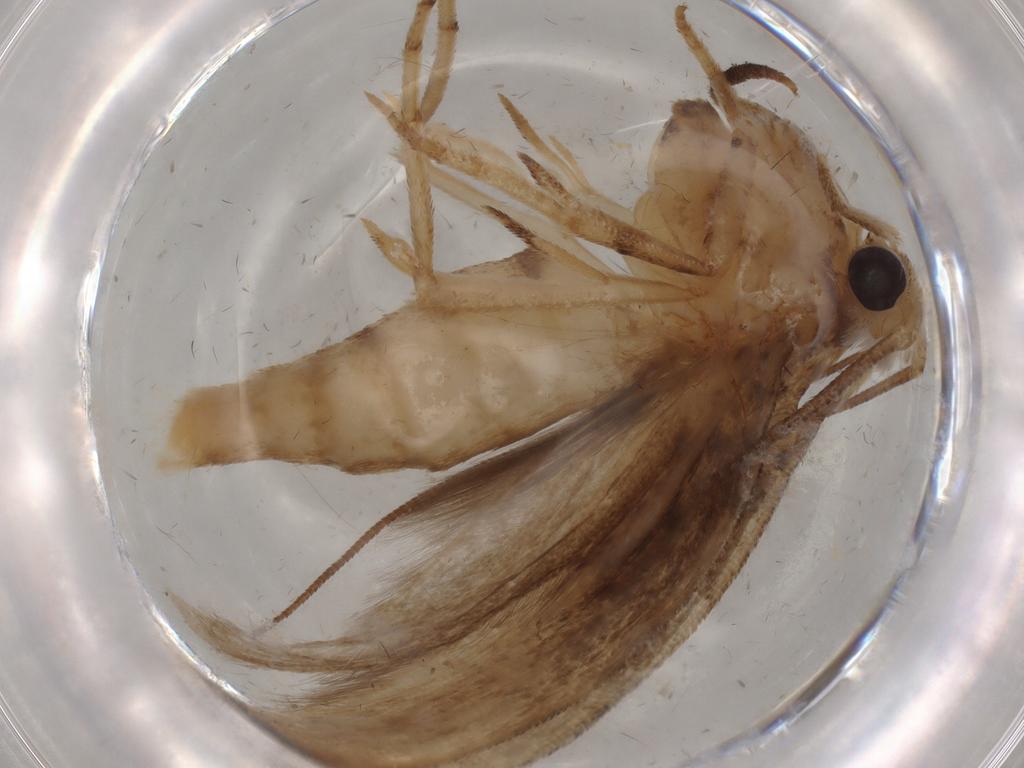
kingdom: Animalia
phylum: Arthropoda
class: Insecta
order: Lepidoptera
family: Yponomeutidae
